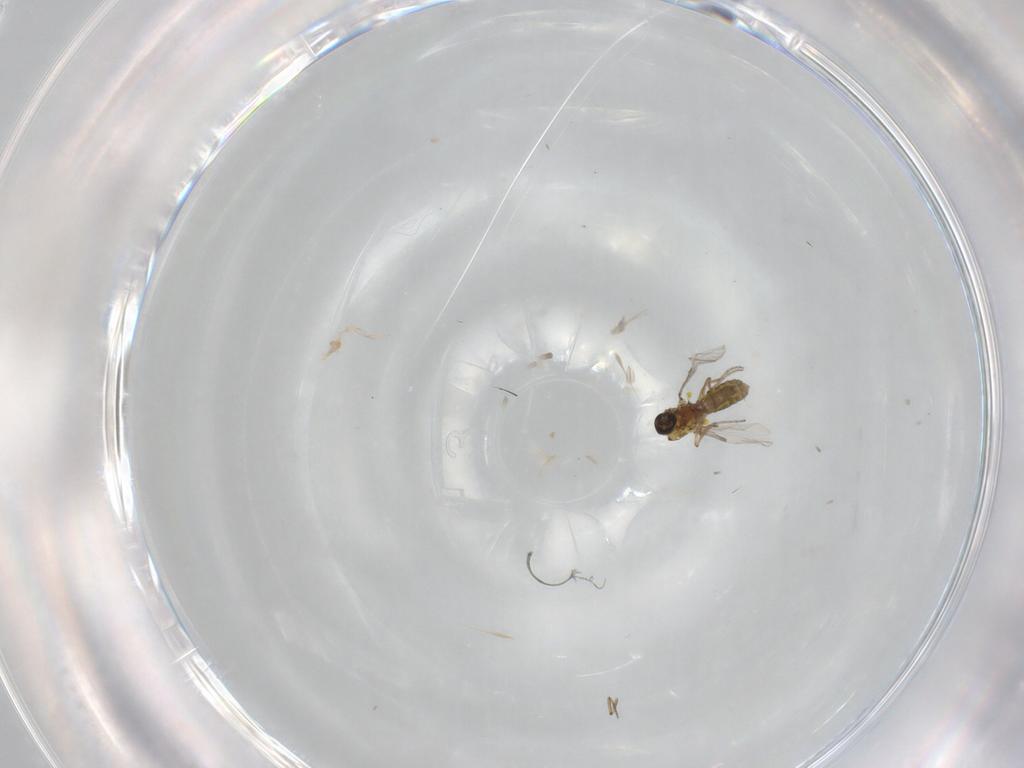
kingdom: Animalia
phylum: Arthropoda
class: Insecta
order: Diptera
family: Ceratopogonidae
